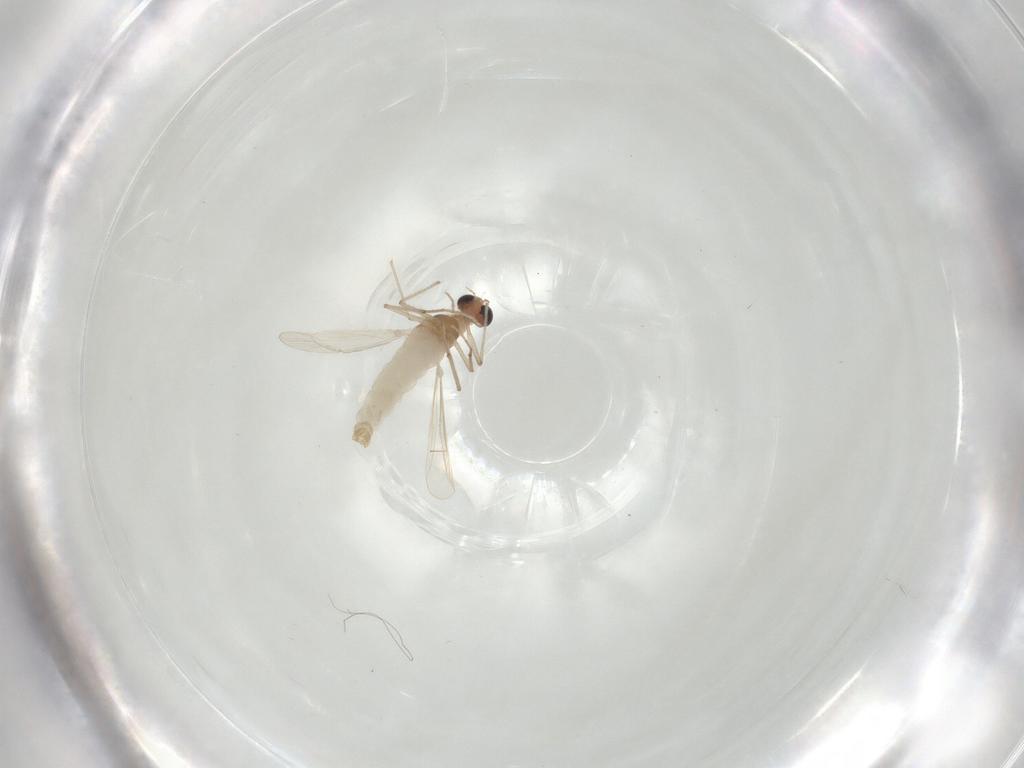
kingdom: Animalia
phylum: Arthropoda
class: Insecta
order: Diptera
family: Chironomidae
